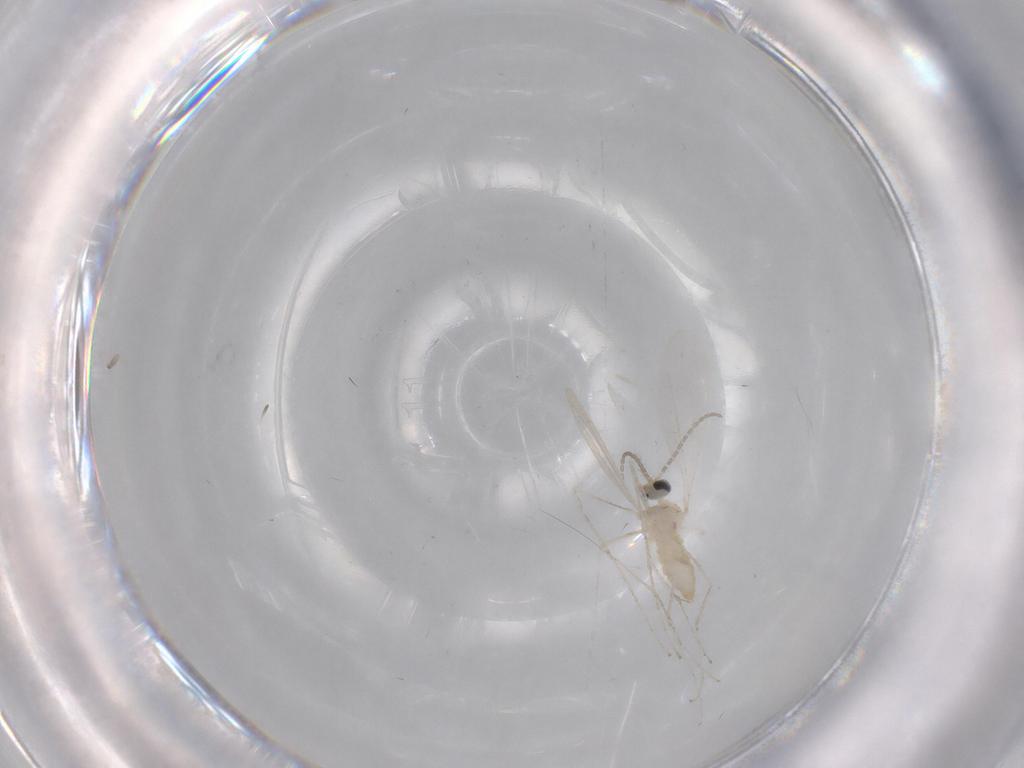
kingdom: Animalia
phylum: Arthropoda
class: Insecta
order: Diptera
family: Cecidomyiidae
